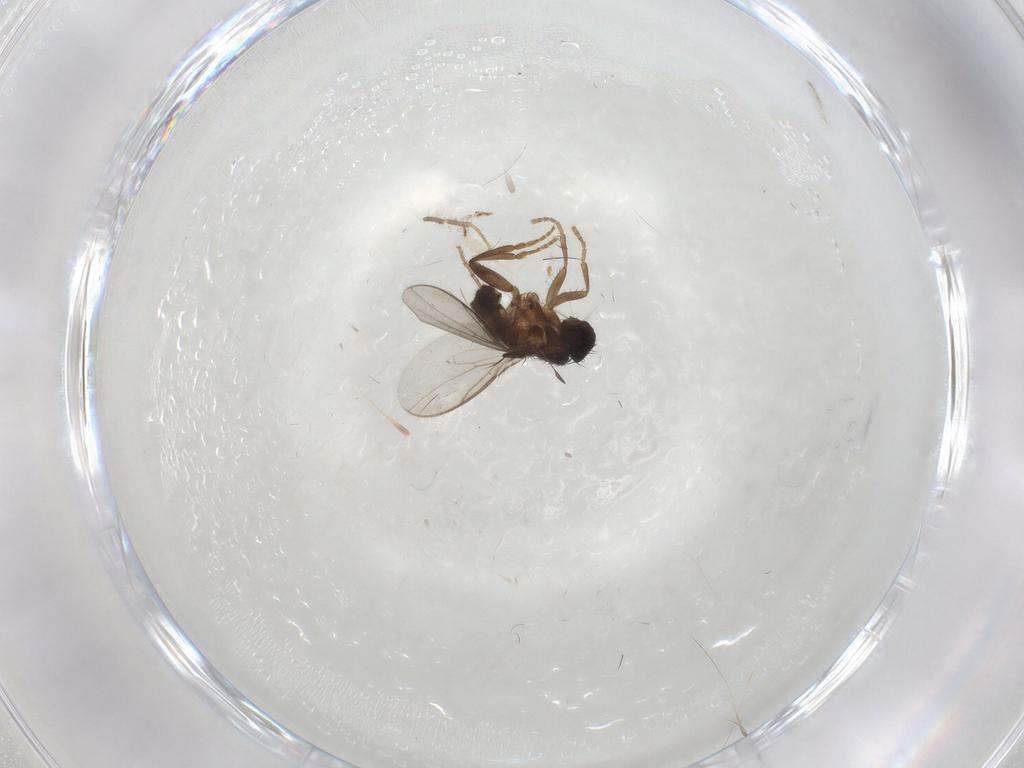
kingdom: Animalia
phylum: Arthropoda
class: Insecta
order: Diptera
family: Sphaeroceridae
